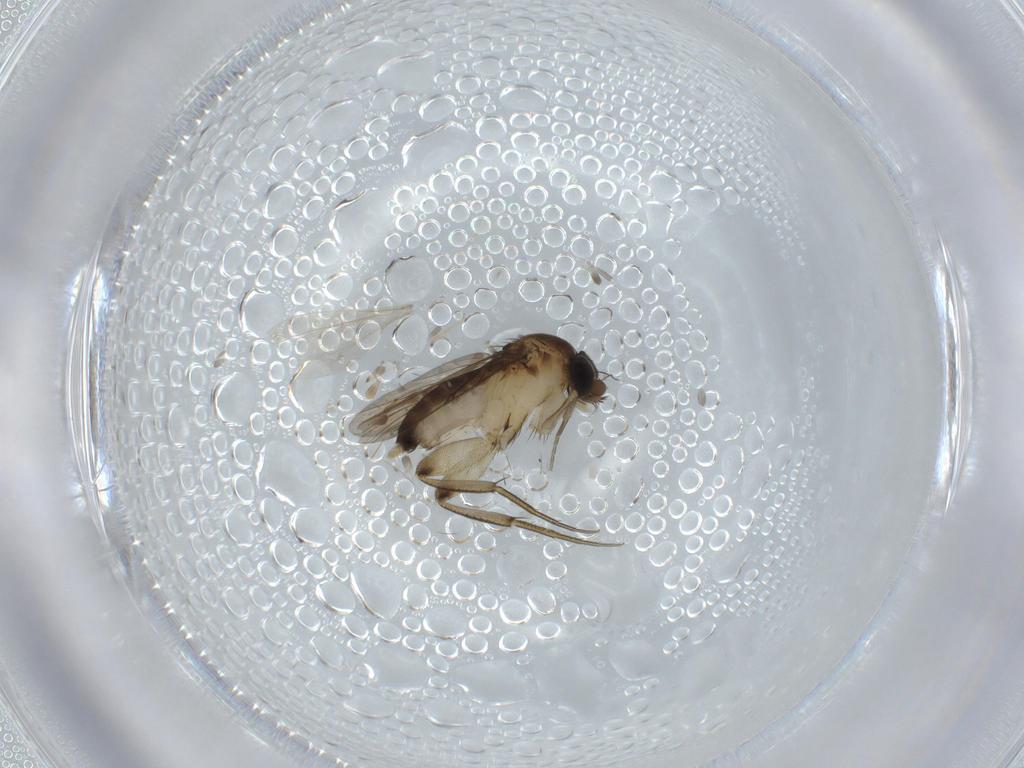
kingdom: Animalia
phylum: Arthropoda
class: Insecta
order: Diptera
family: Phoridae
